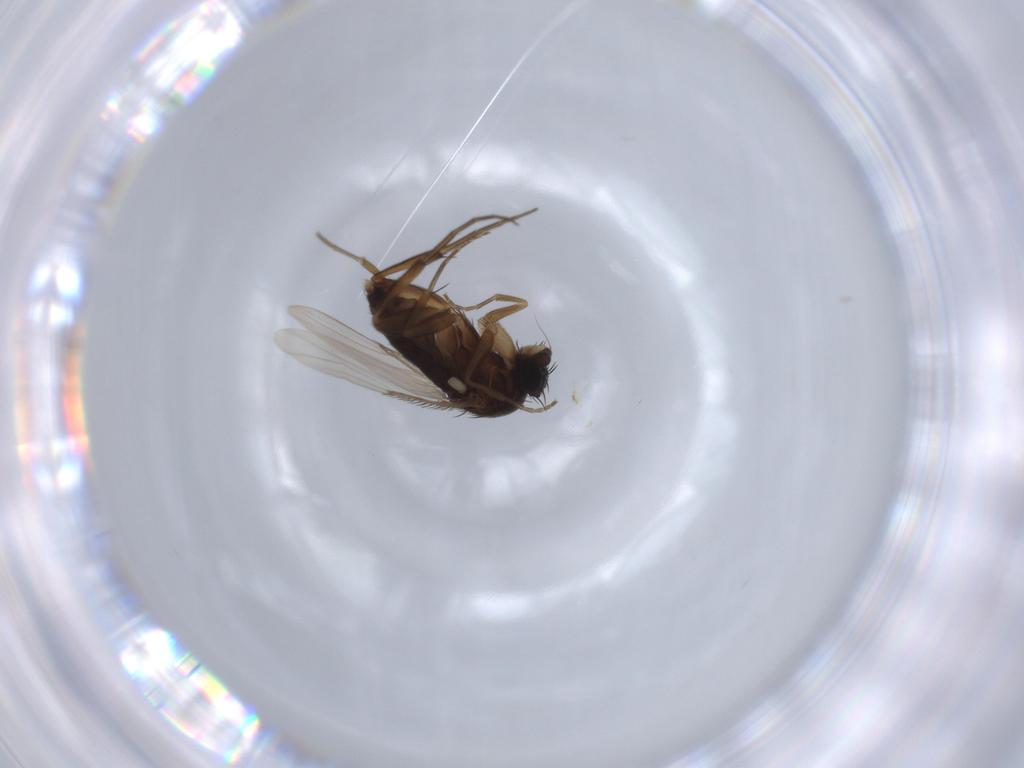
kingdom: Animalia
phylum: Arthropoda
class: Insecta
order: Diptera
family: Phoridae
